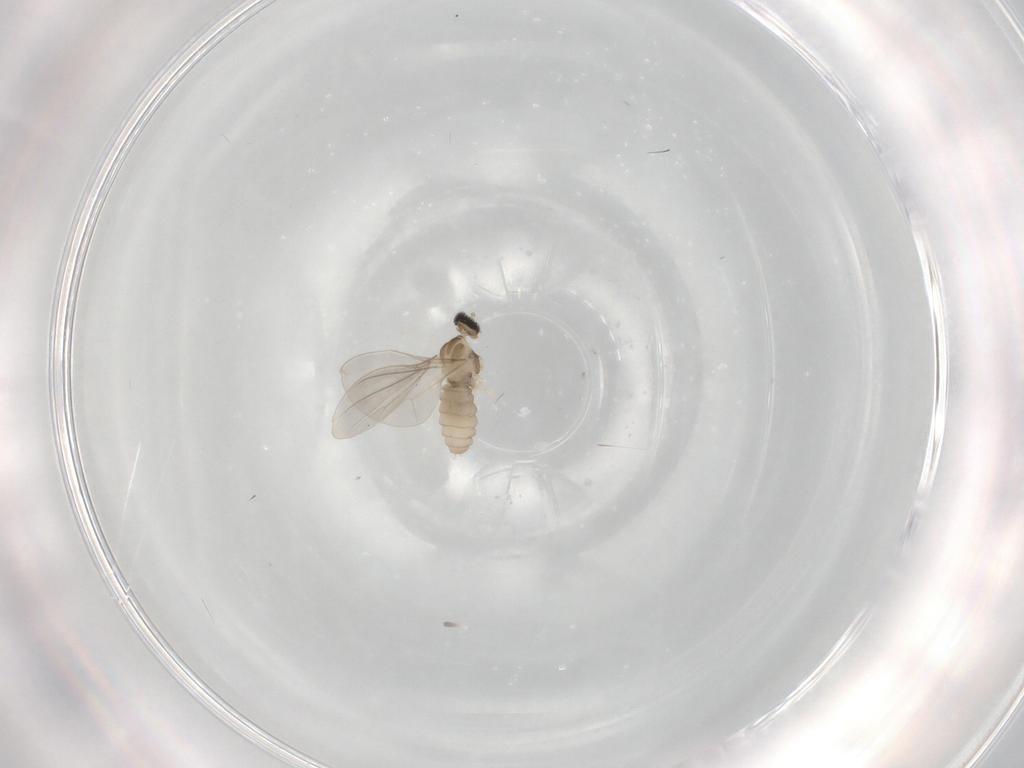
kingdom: Animalia
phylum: Arthropoda
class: Insecta
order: Diptera
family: Cecidomyiidae
